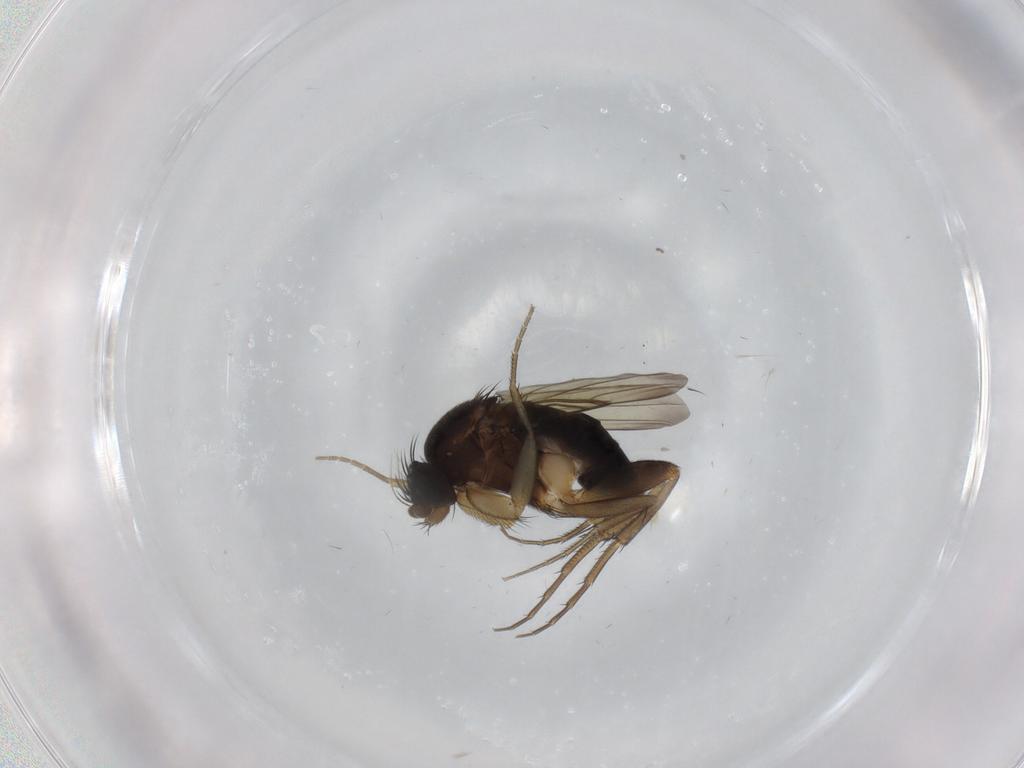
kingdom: Animalia
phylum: Arthropoda
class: Insecta
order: Diptera
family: Phoridae
